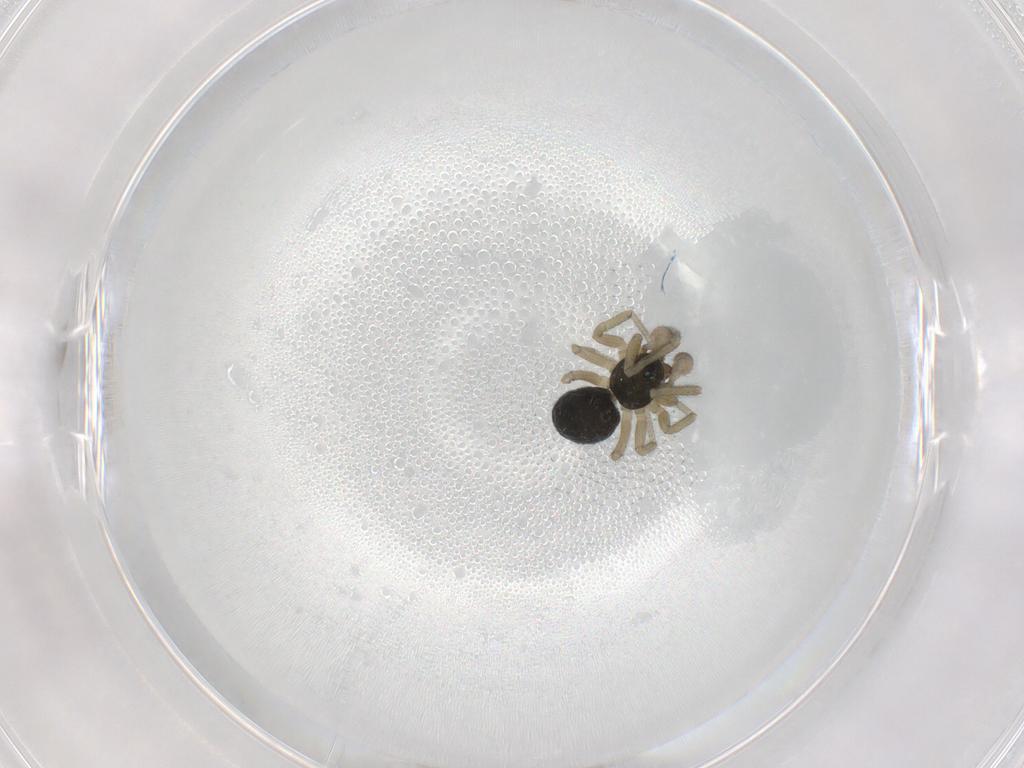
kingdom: Animalia
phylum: Arthropoda
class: Arachnida
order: Araneae
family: Linyphiidae
